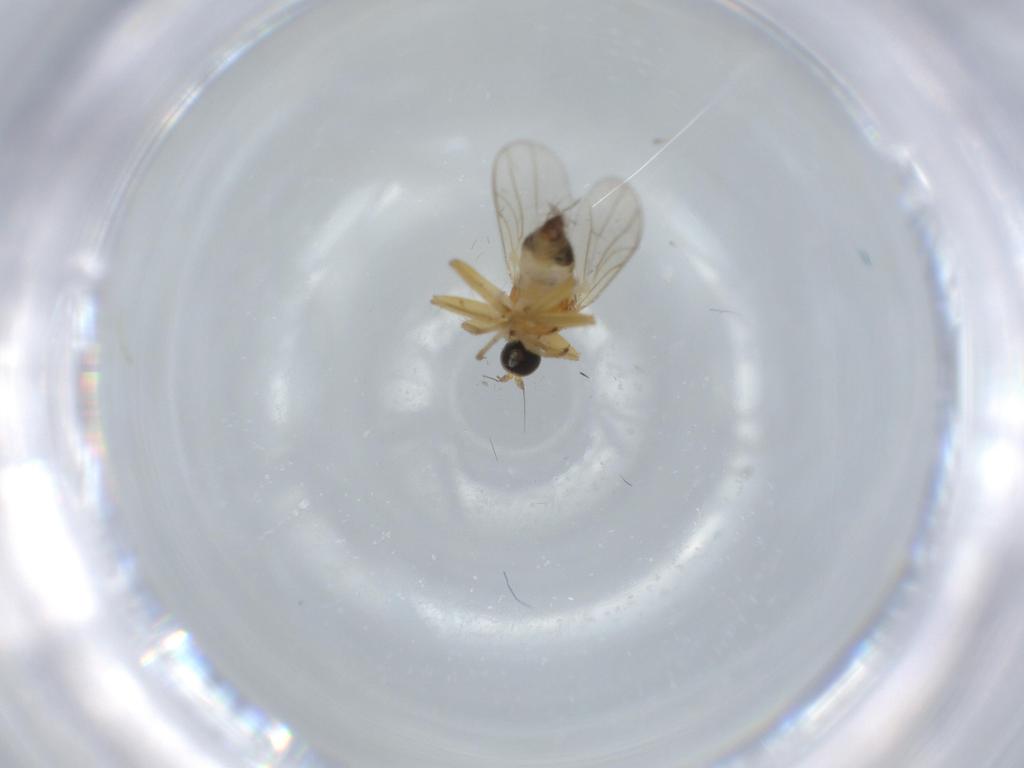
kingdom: Animalia
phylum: Arthropoda
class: Insecta
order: Diptera
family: Hybotidae
